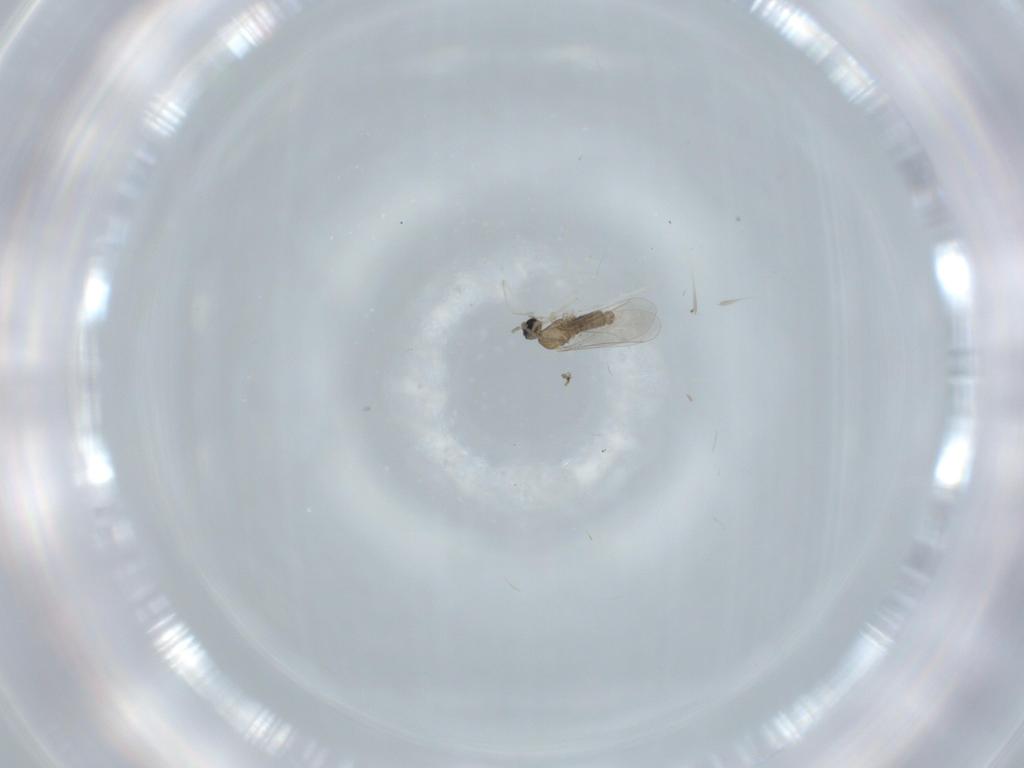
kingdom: Animalia
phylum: Arthropoda
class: Insecta
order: Diptera
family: Cecidomyiidae
